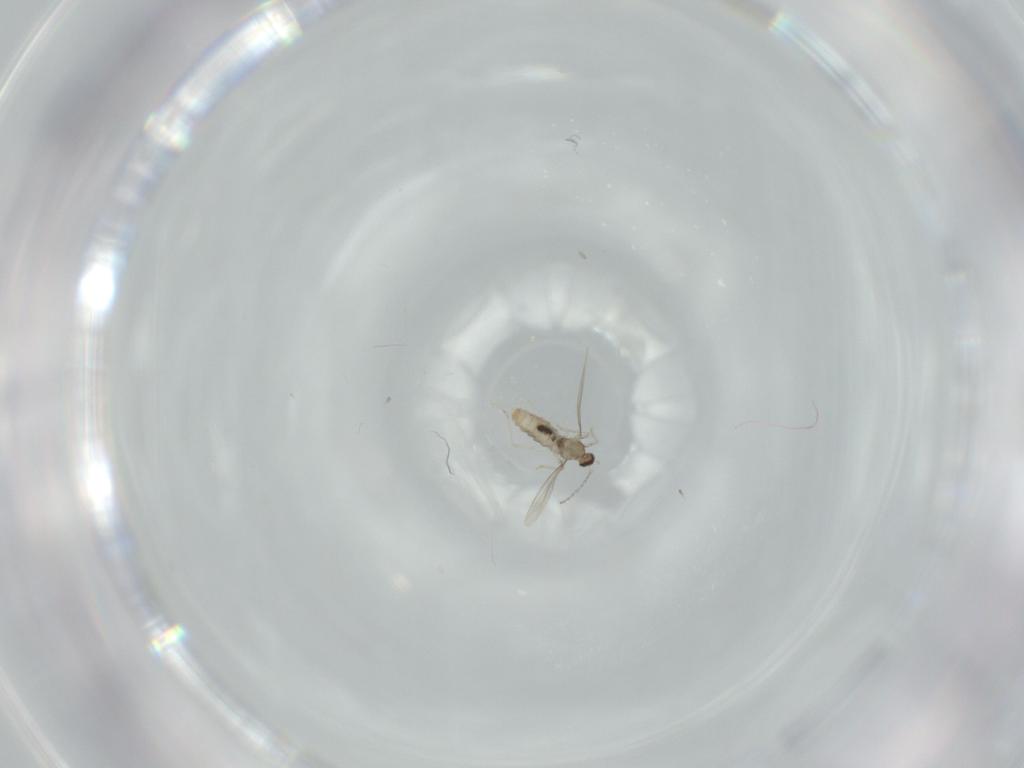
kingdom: Animalia
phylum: Arthropoda
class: Insecta
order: Diptera
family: Cecidomyiidae
